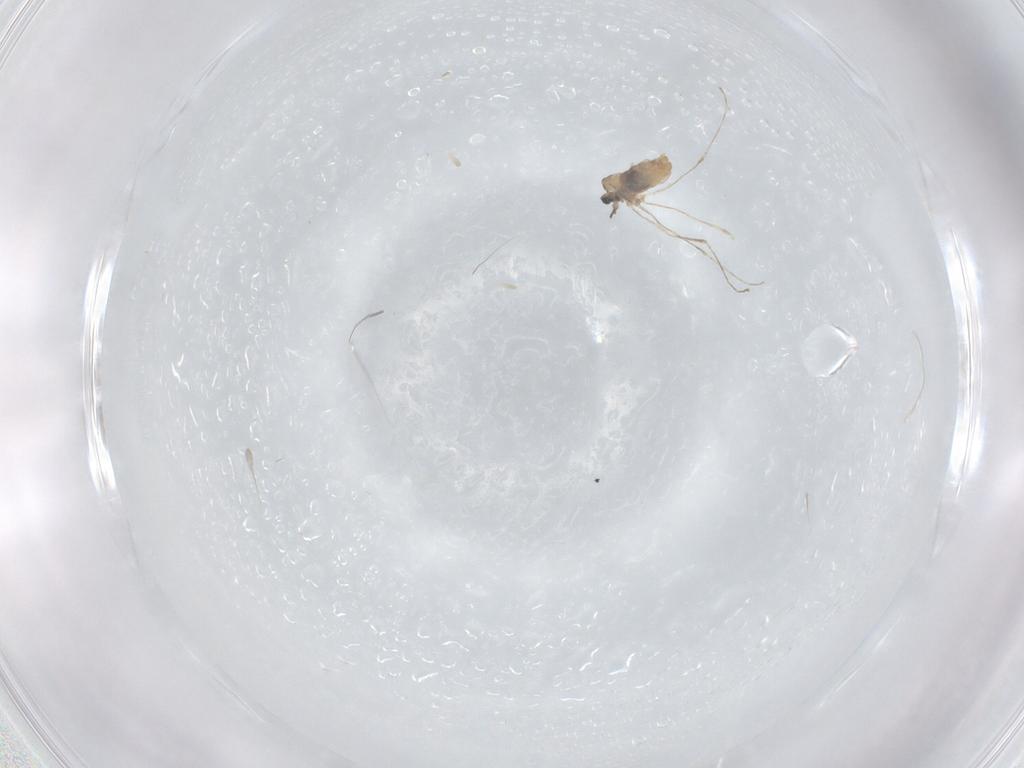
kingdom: Animalia
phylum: Arthropoda
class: Insecta
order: Diptera
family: Cecidomyiidae
